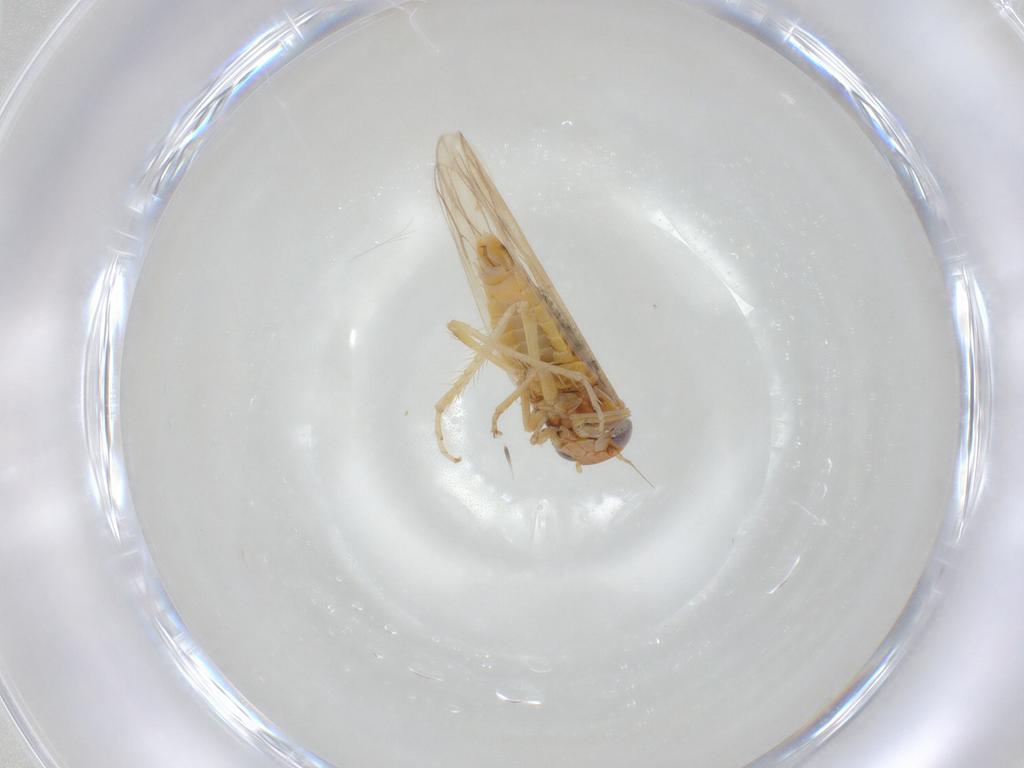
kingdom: Animalia
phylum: Arthropoda
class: Insecta
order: Hemiptera
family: Cicadellidae
